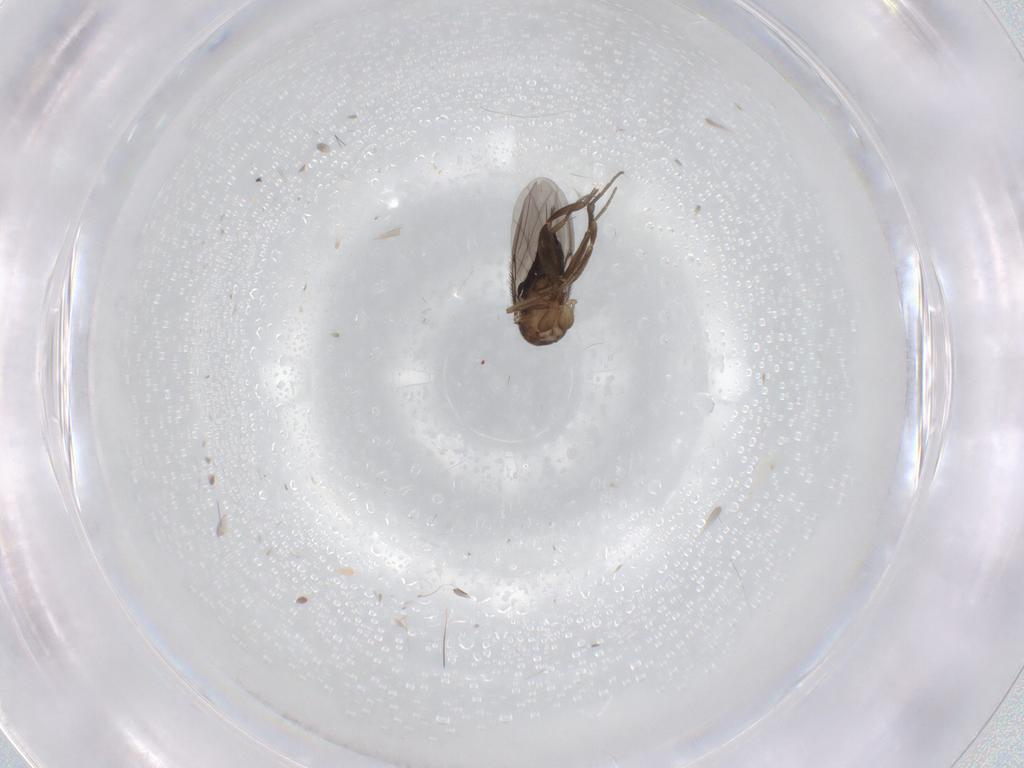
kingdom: Animalia
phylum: Arthropoda
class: Insecta
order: Diptera
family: Phoridae
